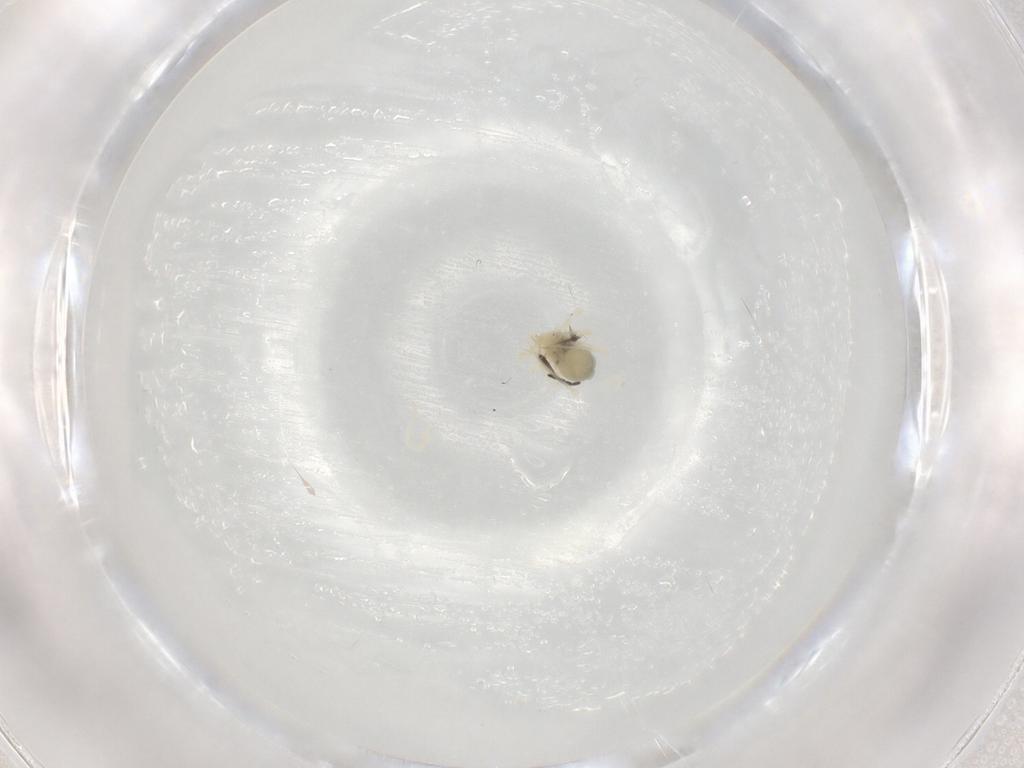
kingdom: Animalia
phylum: Arthropoda
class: Arachnida
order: Trombidiformes
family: Anystidae
